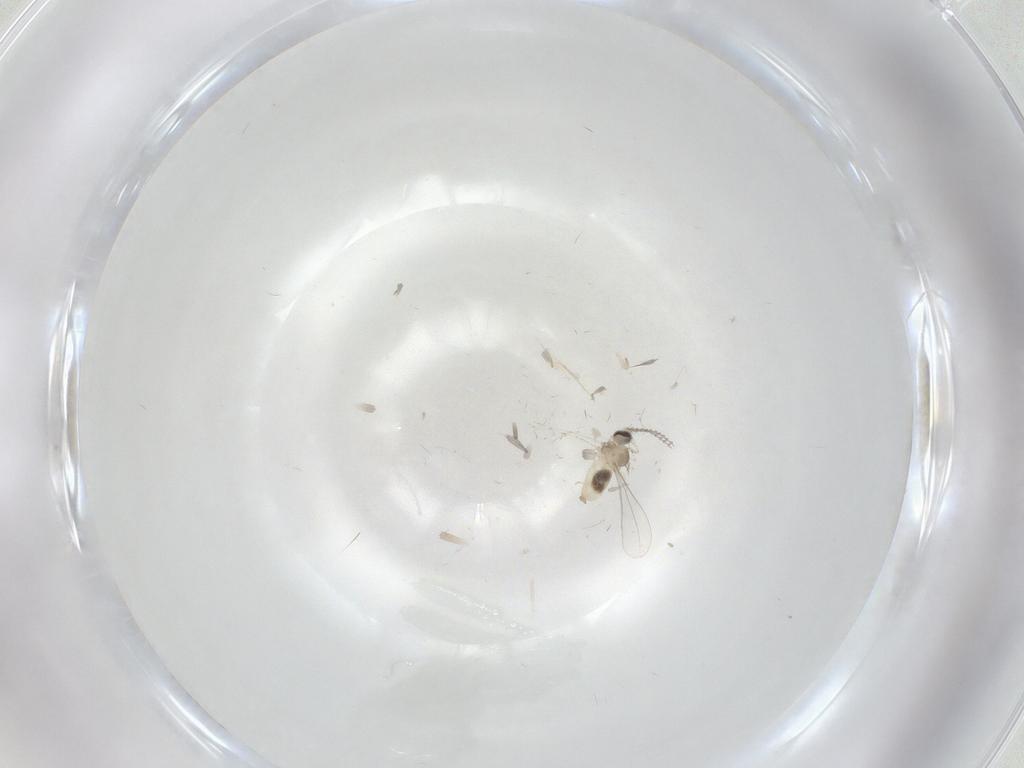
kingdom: Animalia
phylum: Arthropoda
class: Insecta
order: Diptera
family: Cecidomyiidae
